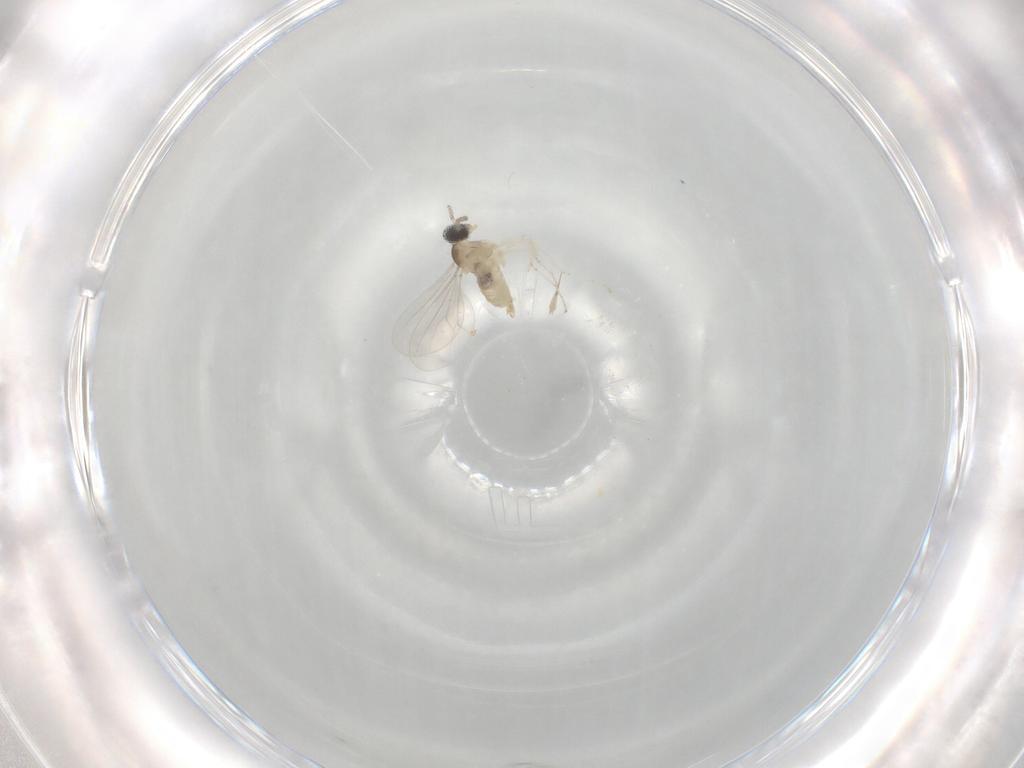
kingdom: Animalia
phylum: Arthropoda
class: Insecta
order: Diptera
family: Cecidomyiidae
